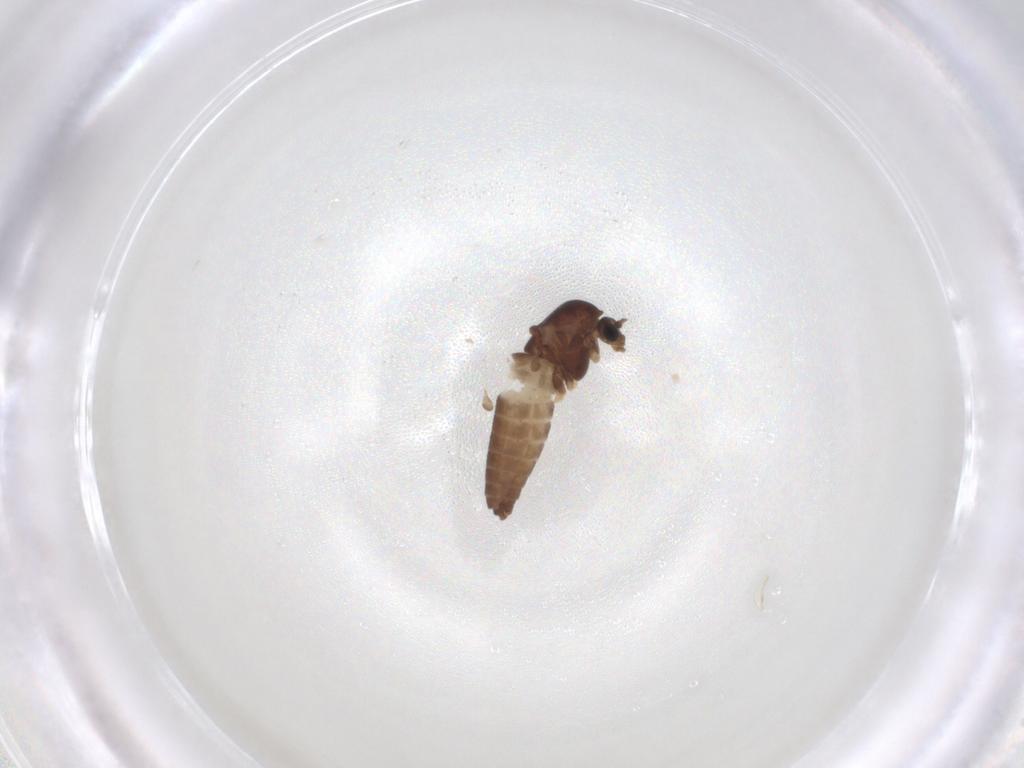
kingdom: Animalia
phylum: Arthropoda
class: Insecta
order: Diptera
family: Chironomidae
